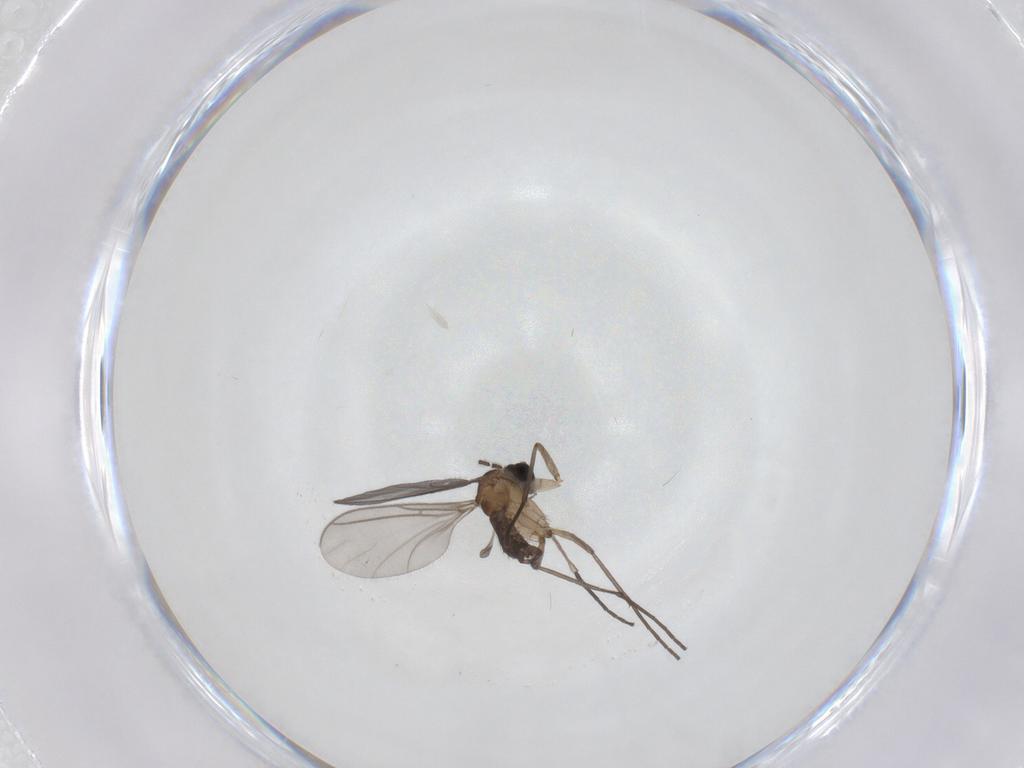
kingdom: Animalia
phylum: Arthropoda
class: Insecta
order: Diptera
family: Sciaridae
